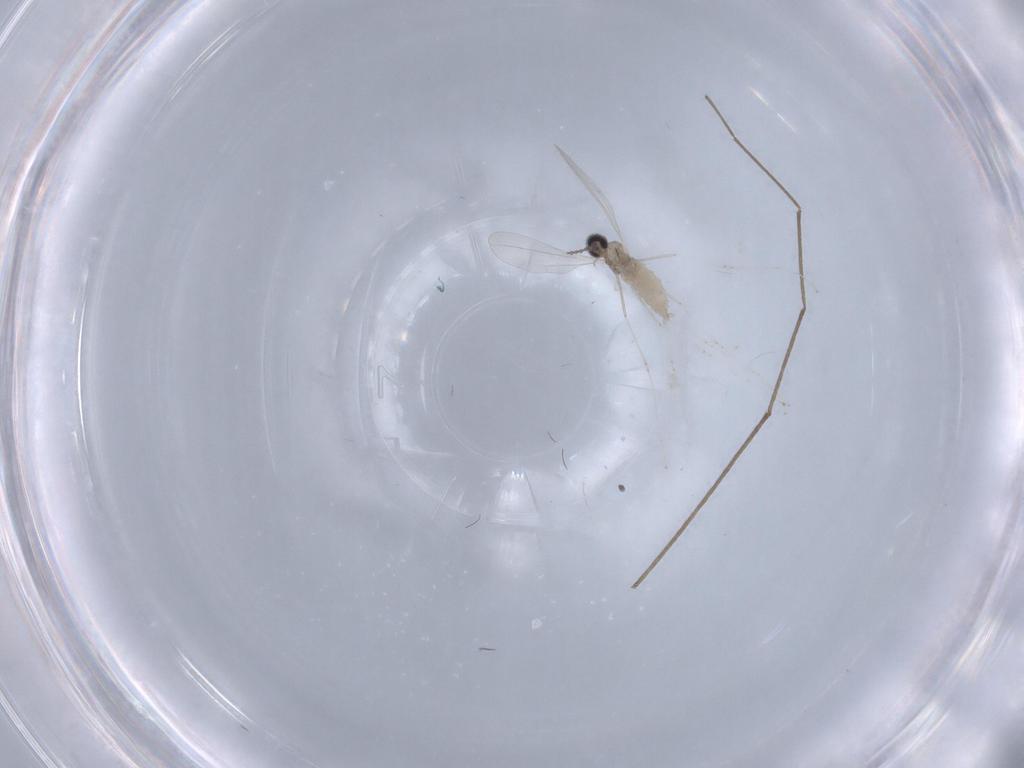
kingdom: Animalia
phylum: Arthropoda
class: Insecta
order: Diptera
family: Cecidomyiidae
